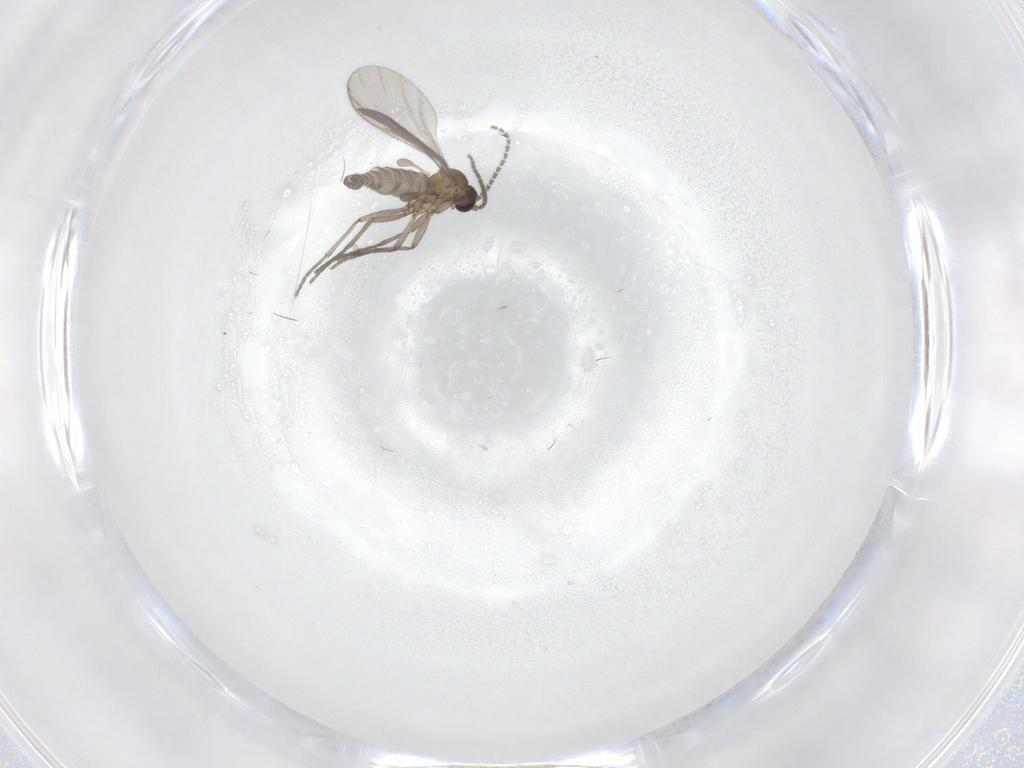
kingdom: Animalia
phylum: Arthropoda
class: Insecta
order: Diptera
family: Sciaridae
